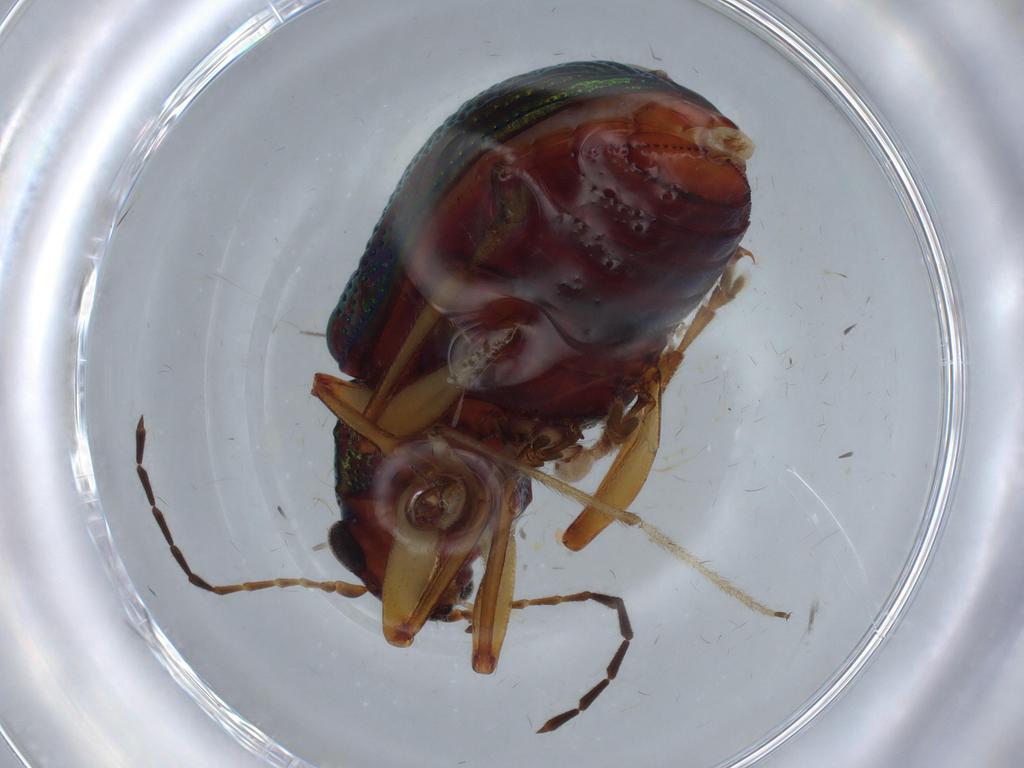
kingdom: Animalia
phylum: Arthropoda
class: Insecta
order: Coleoptera
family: Chrysomelidae
